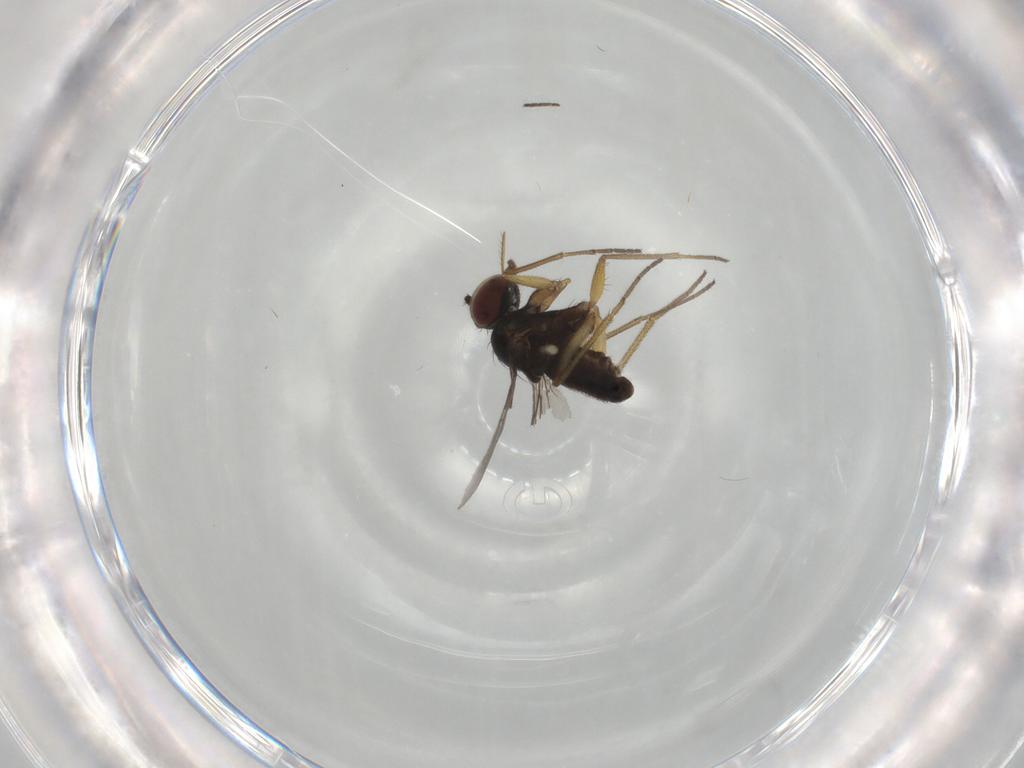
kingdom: Animalia
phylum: Arthropoda
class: Insecta
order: Diptera
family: Dolichopodidae
